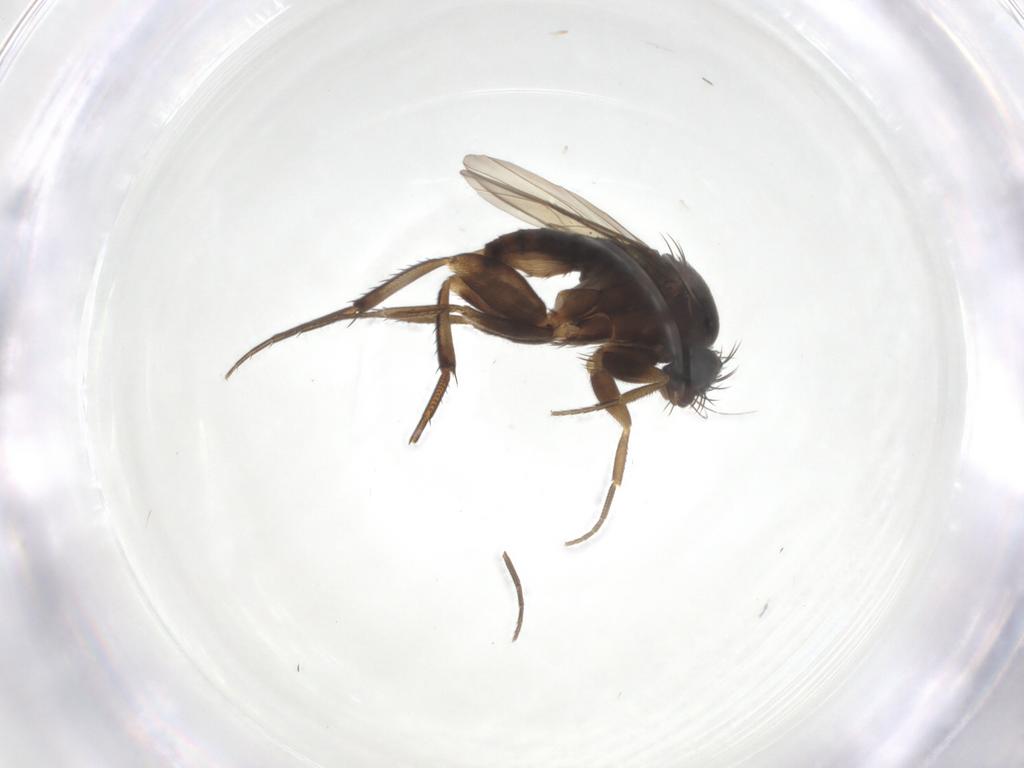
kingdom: Animalia
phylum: Arthropoda
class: Insecta
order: Diptera
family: Phoridae
